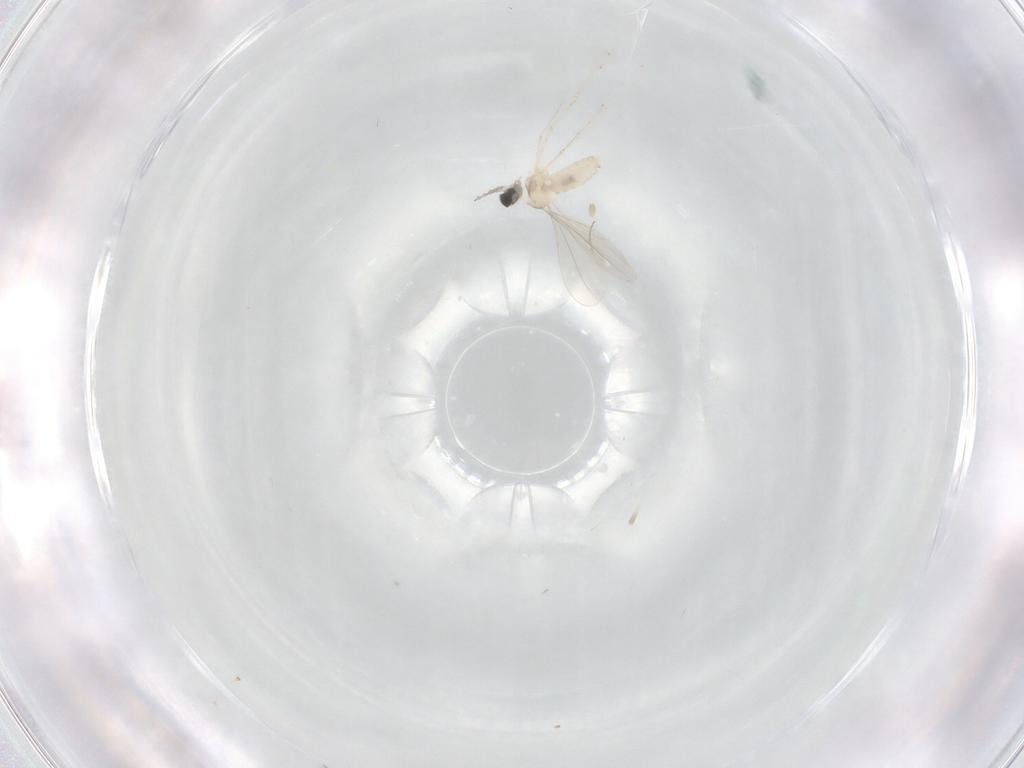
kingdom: Animalia
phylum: Arthropoda
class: Insecta
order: Diptera
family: Cecidomyiidae
